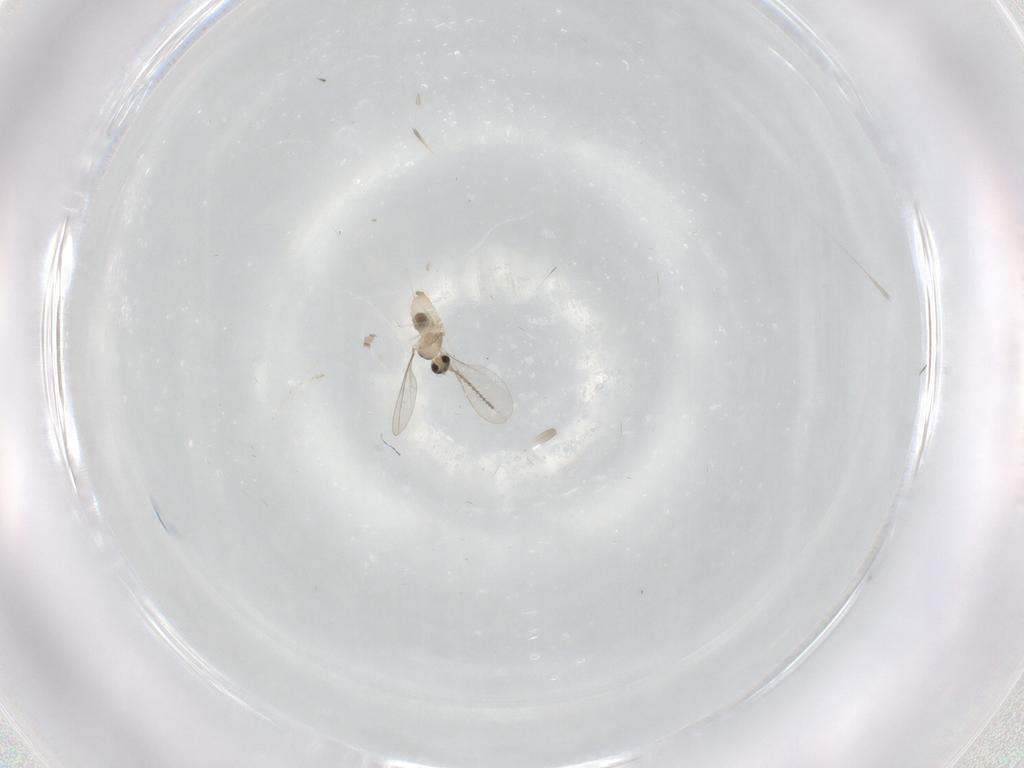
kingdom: Animalia
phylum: Arthropoda
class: Insecta
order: Diptera
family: Cecidomyiidae
